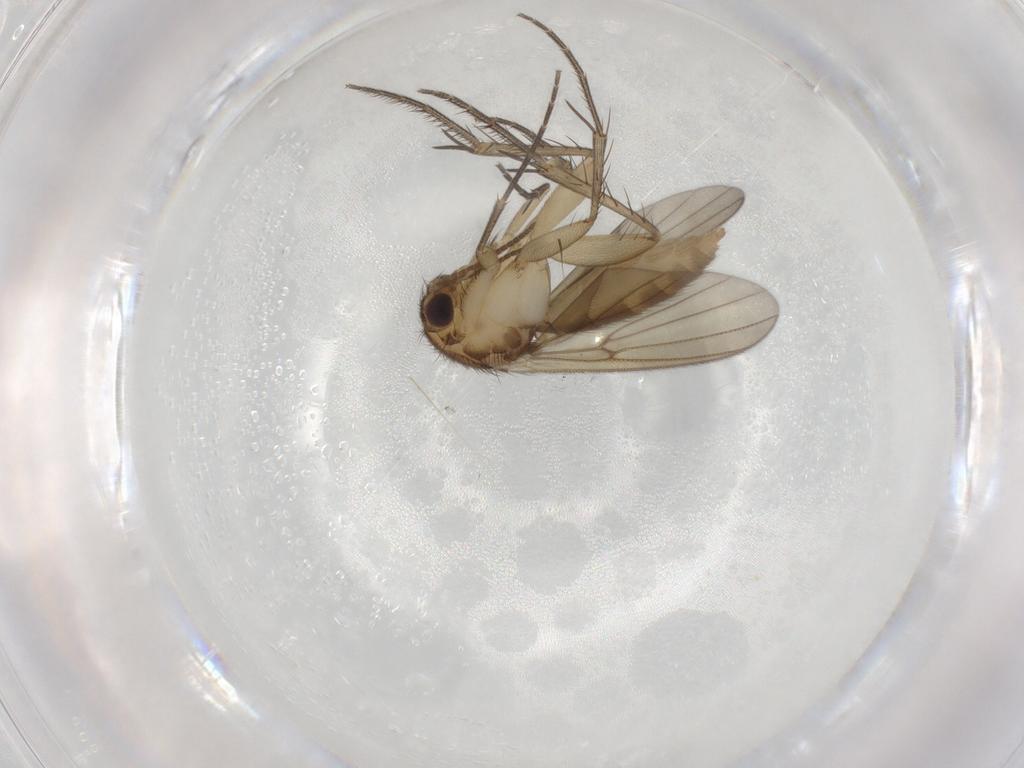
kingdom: Animalia
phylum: Arthropoda
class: Insecta
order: Diptera
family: Mycetophilidae
